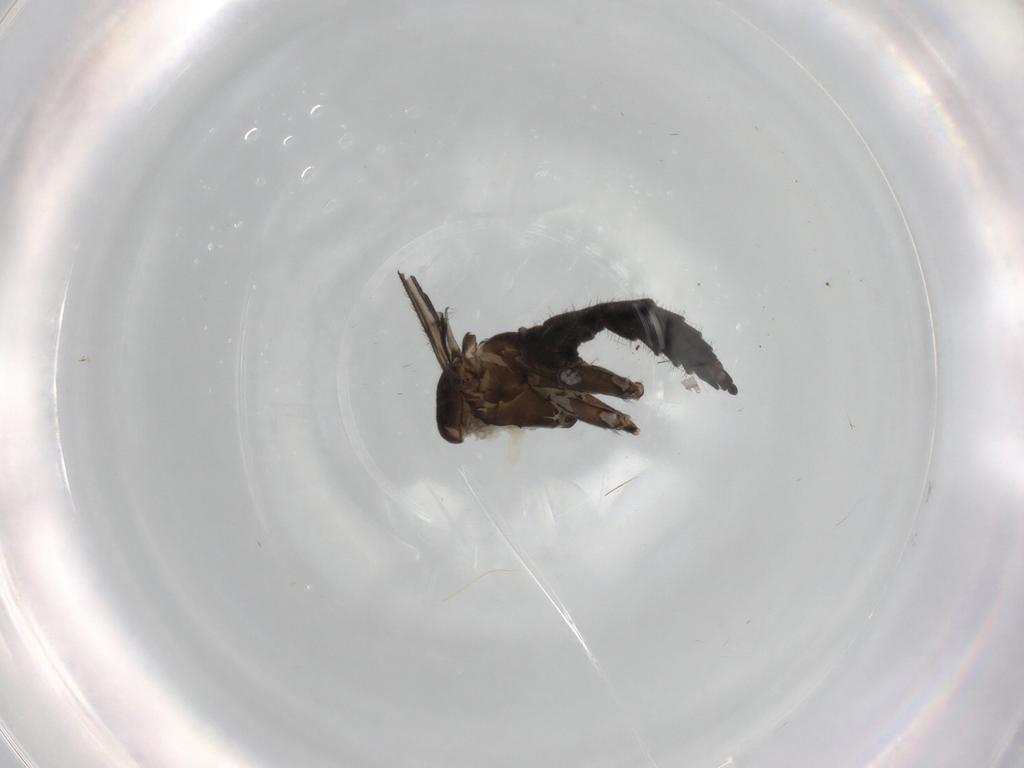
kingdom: Animalia
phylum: Arthropoda
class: Insecta
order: Diptera
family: Sciaridae
